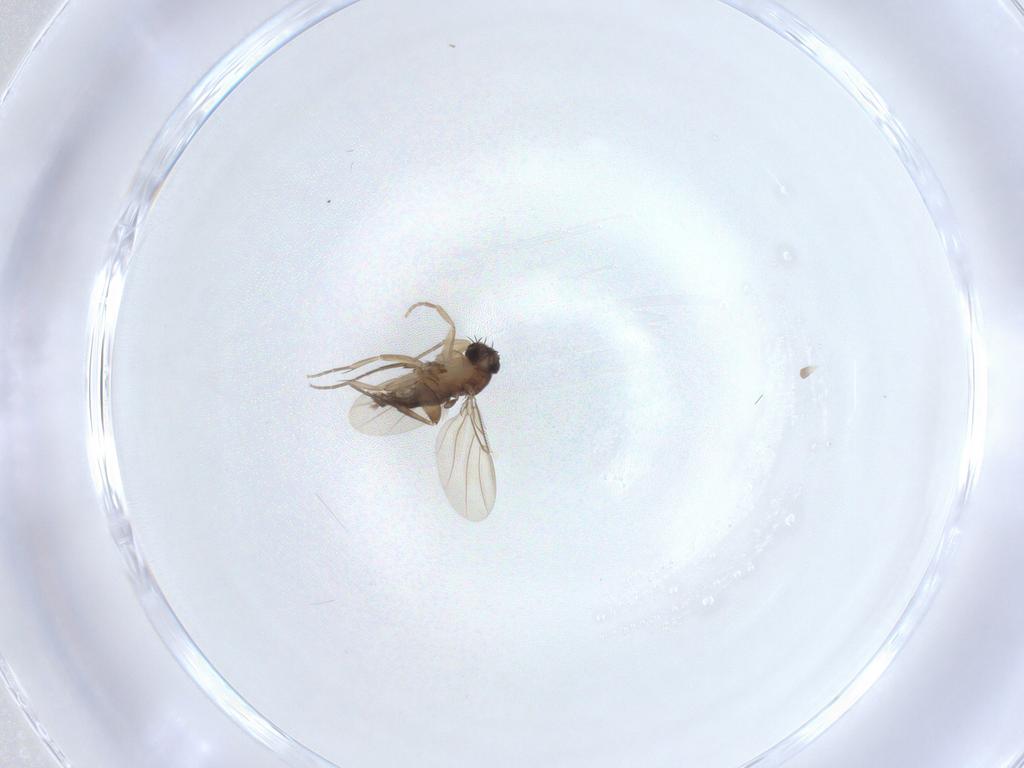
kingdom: Animalia
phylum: Arthropoda
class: Insecta
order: Diptera
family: Phoridae
